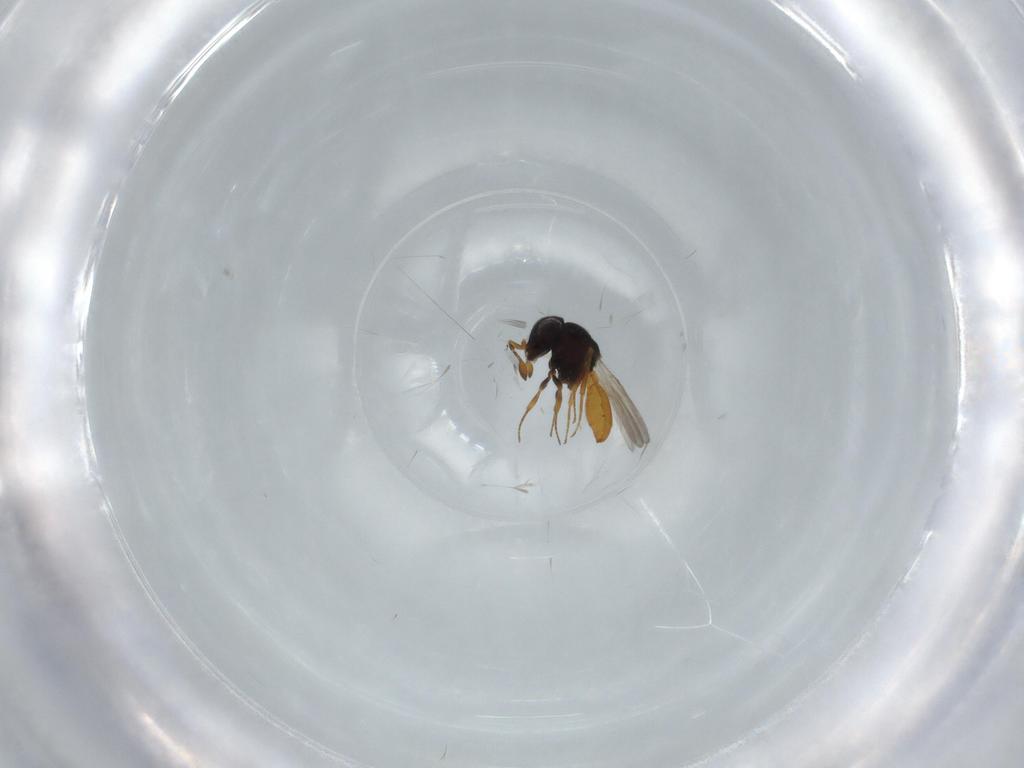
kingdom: Animalia
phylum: Arthropoda
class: Insecta
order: Hymenoptera
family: Scelionidae
